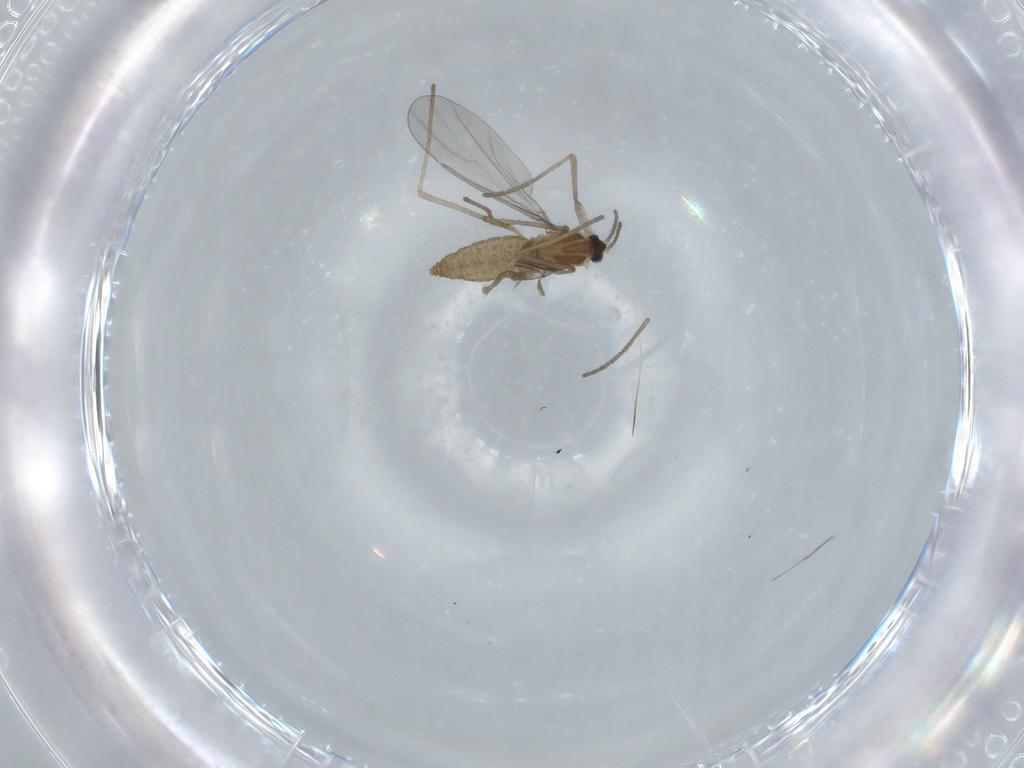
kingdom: Animalia
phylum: Arthropoda
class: Insecta
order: Diptera
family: Cecidomyiidae
